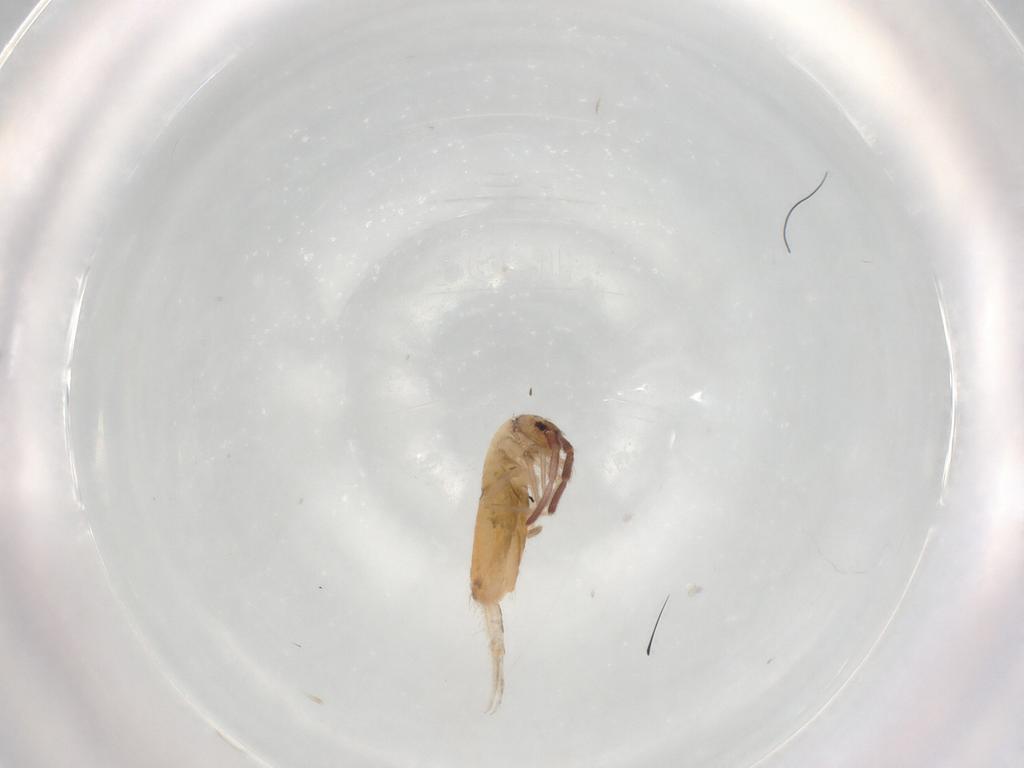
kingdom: Animalia
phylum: Arthropoda
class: Collembola
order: Entomobryomorpha
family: Entomobryidae
